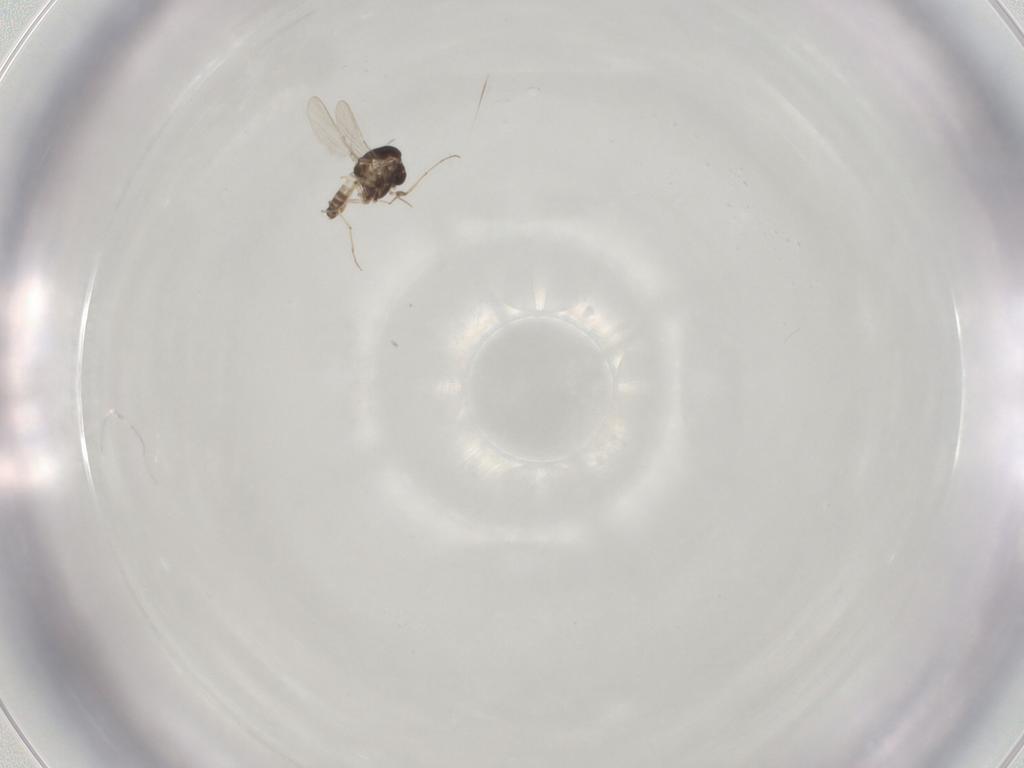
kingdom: Animalia
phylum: Arthropoda
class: Insecta
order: Diptera
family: Cecidomyiidae
